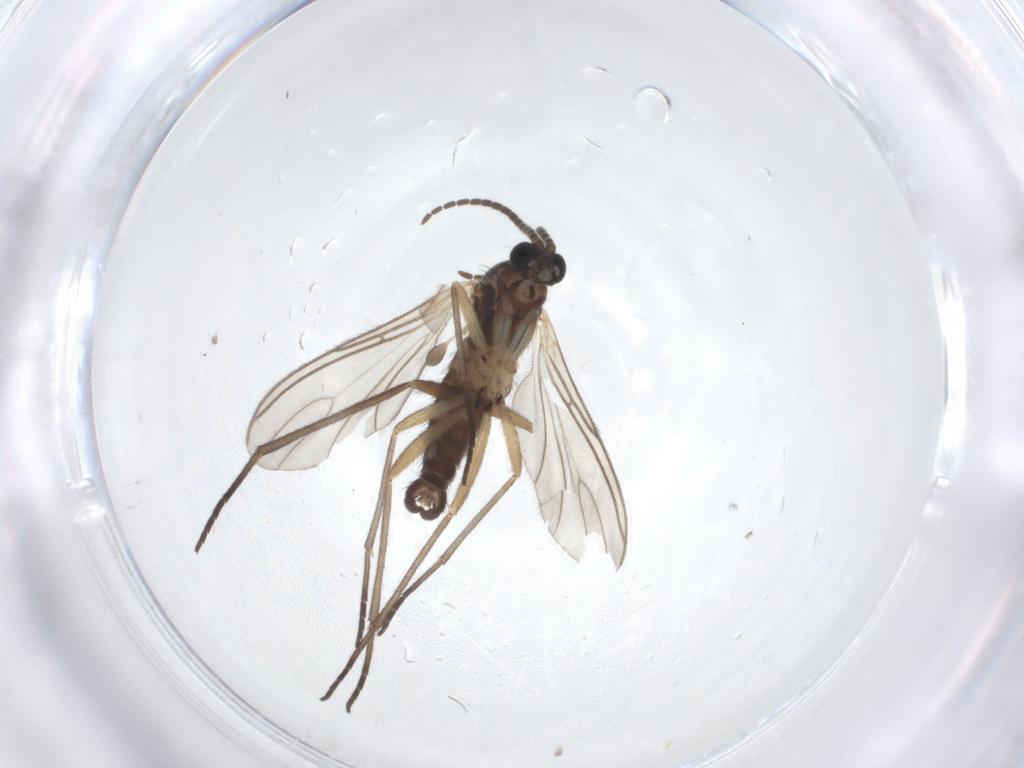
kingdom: Animalia
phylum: Arthropoda
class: Insecta
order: Diptera
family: Sciaridae
